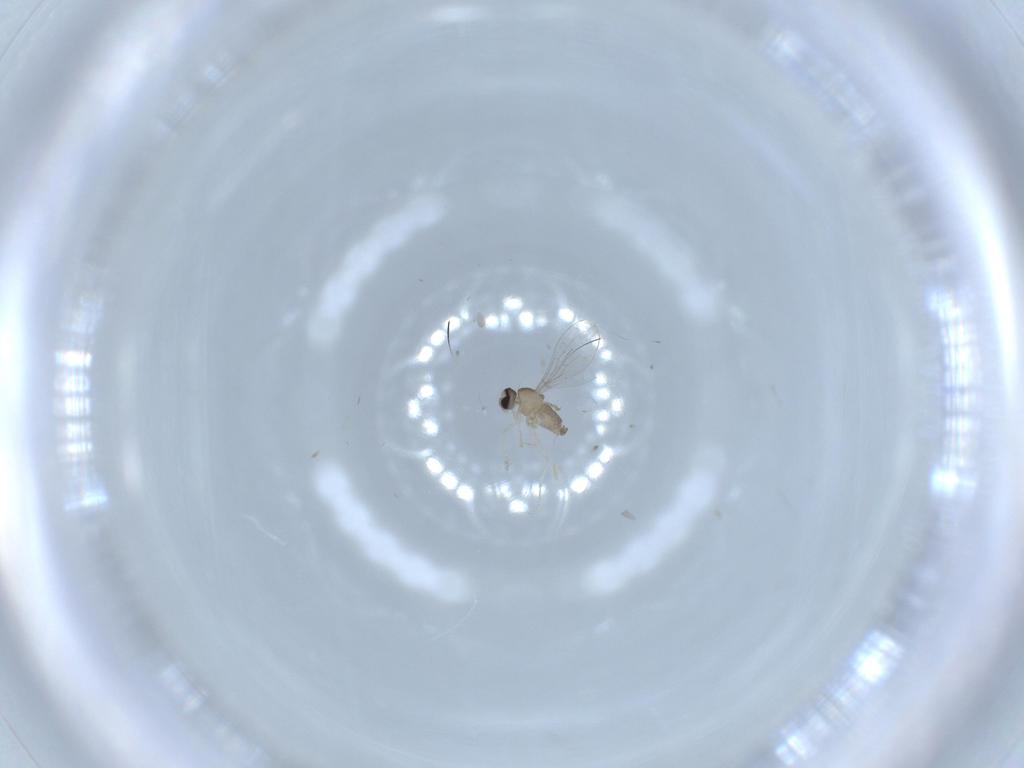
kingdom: Animalia
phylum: Arthropoda
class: Insecta
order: Diptera
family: Cecidomyiidae
